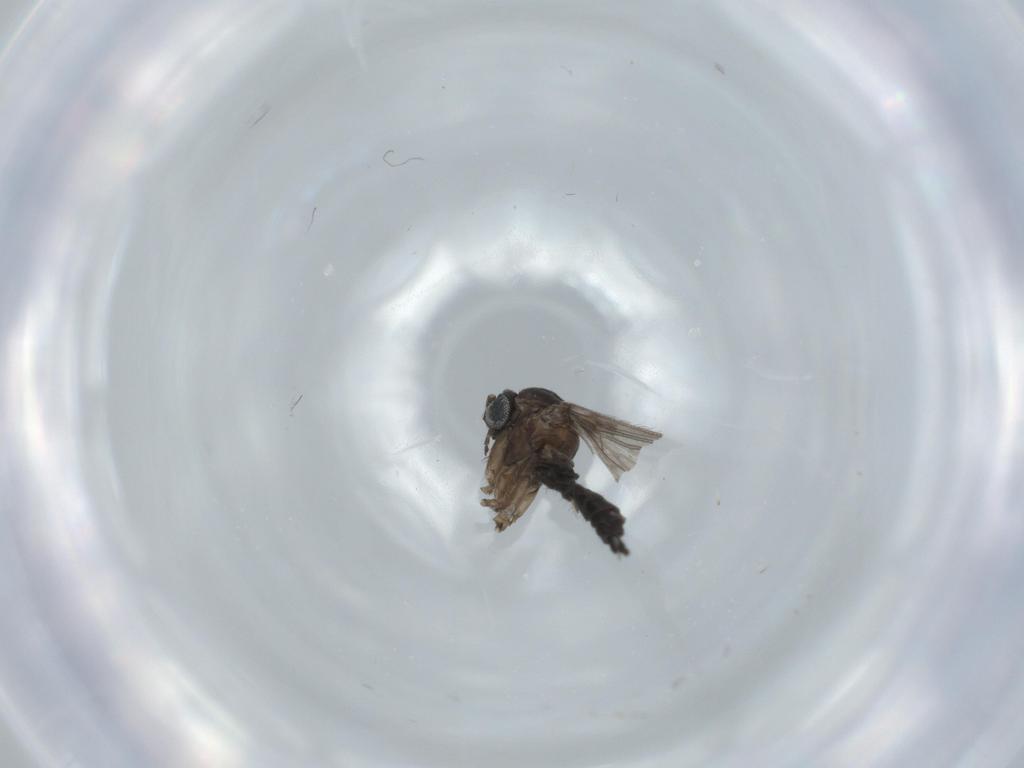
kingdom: Animalia
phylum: Arthropoda
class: Insecta
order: Diptera
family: Sciaridae
